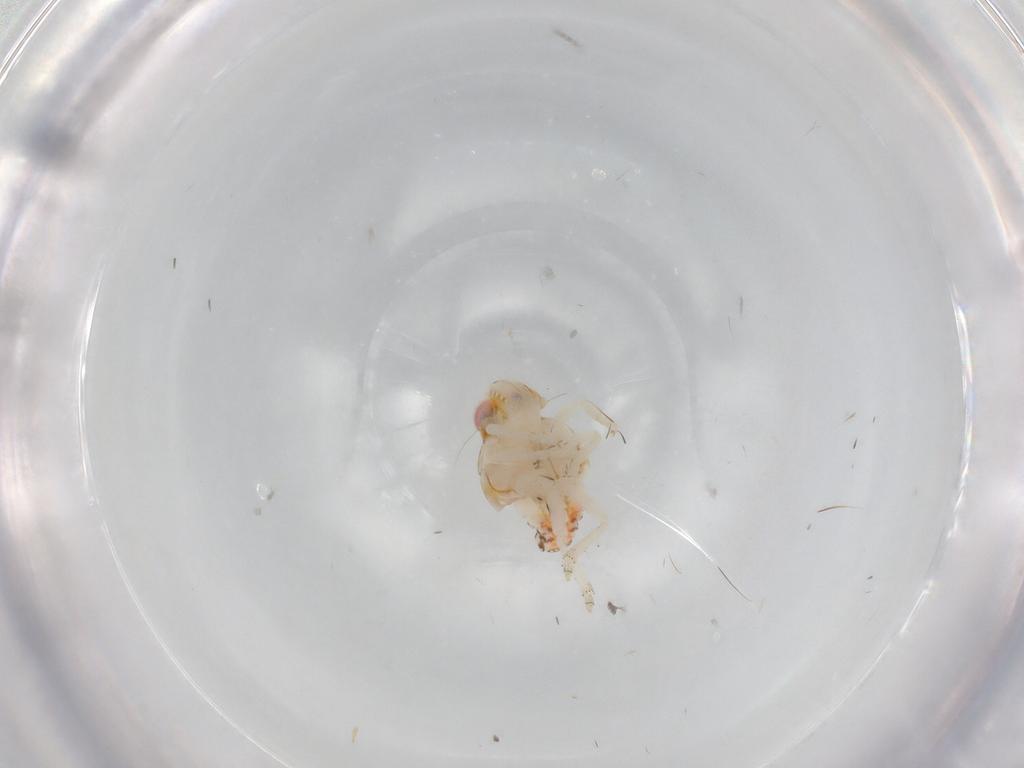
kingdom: Animalia
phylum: Arthropoda
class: Insecta
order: Hemiptera
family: Nogodinidae
